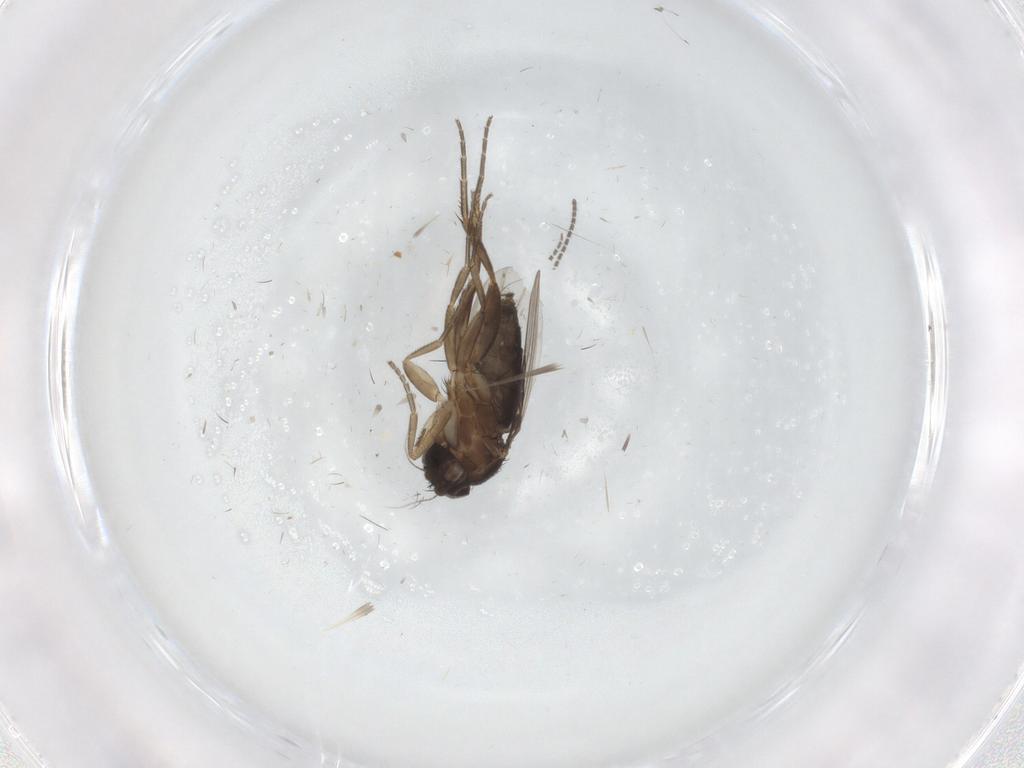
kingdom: Animalia
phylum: Arthropoda
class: Insecta
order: Diptera
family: Phoridae
